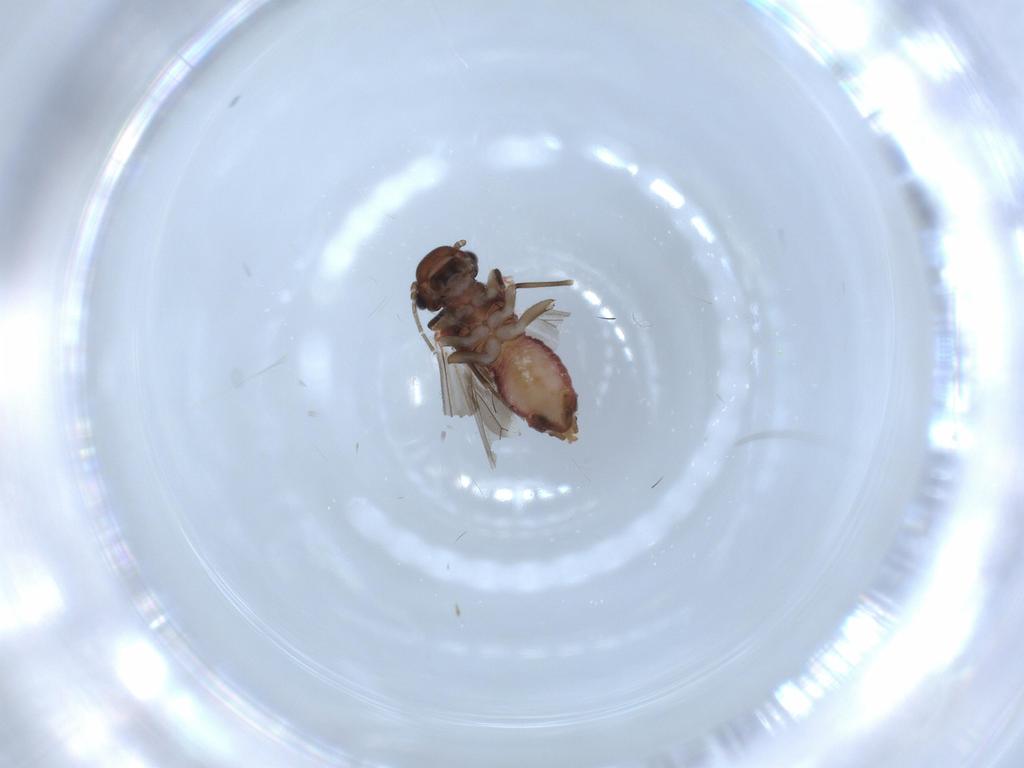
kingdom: Animalia
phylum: Arthropoda
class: Insecta
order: Psocodea
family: Caeciliusidae
